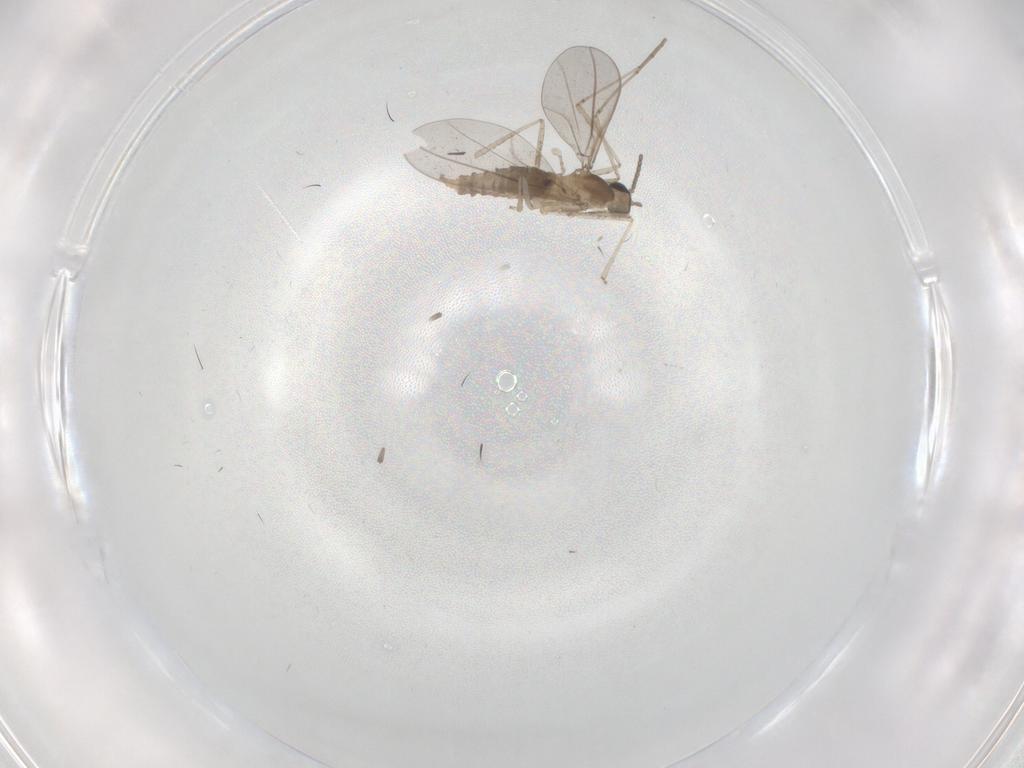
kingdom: Animalia
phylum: Arthropoda
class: Insecta
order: Diptera
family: Cecidomyiidae
